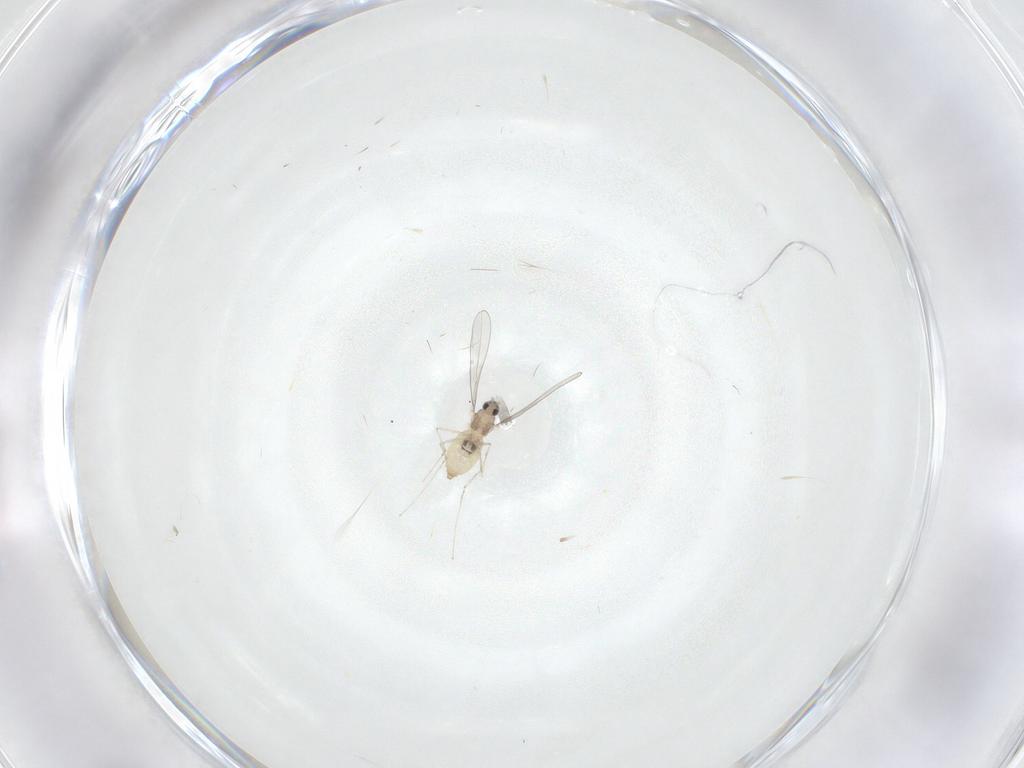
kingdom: Animalia
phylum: Arthropoda
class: Insecta
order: Diptera
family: Cecidomyiidae
